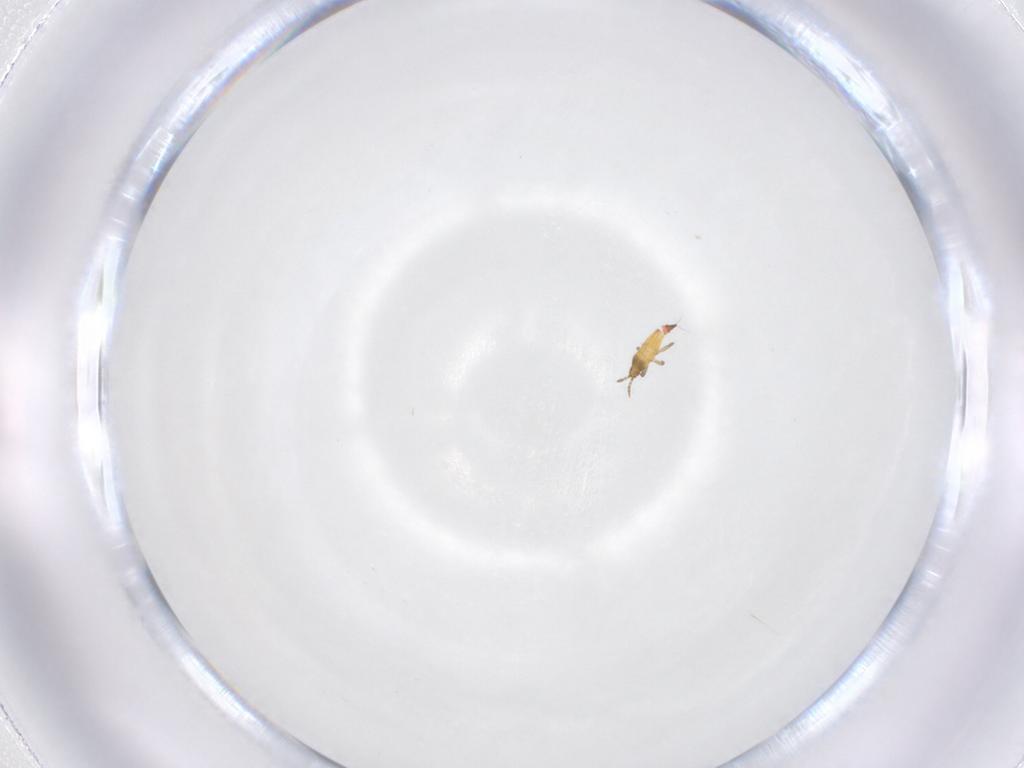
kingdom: Animalia
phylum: Arthropoda
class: Insecta
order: Thysanoptera
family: Phlaeothripidae
